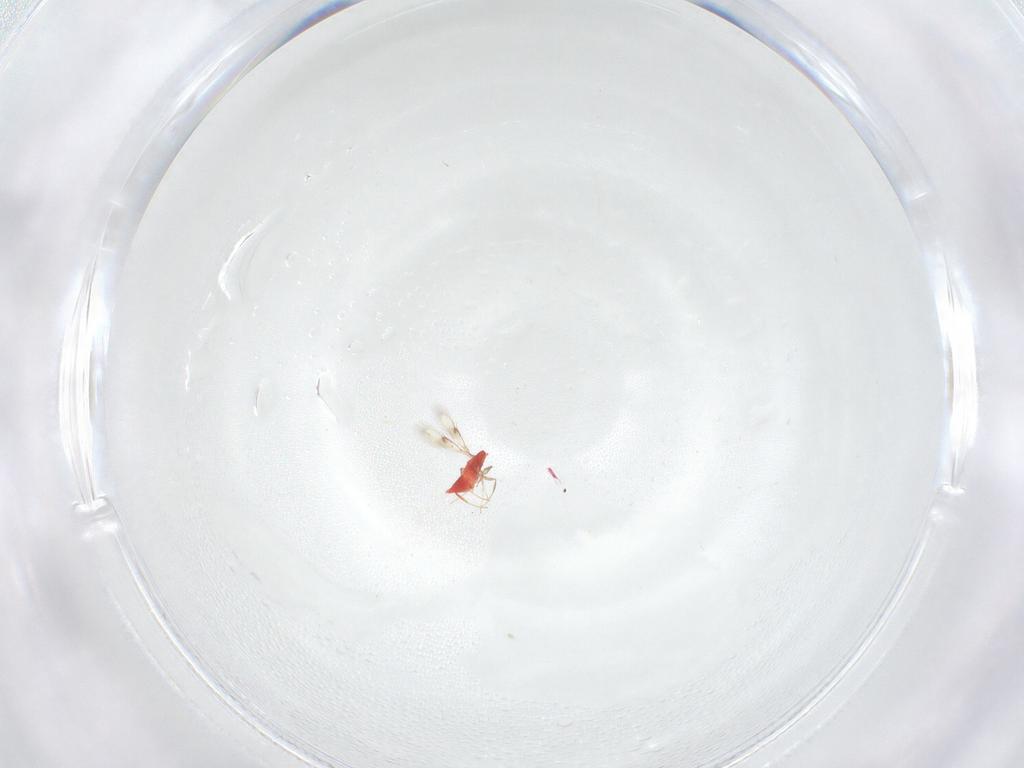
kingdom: Animalia
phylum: Arthropoda
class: Insecta
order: Hymenoptera
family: Trichogrammatidae
